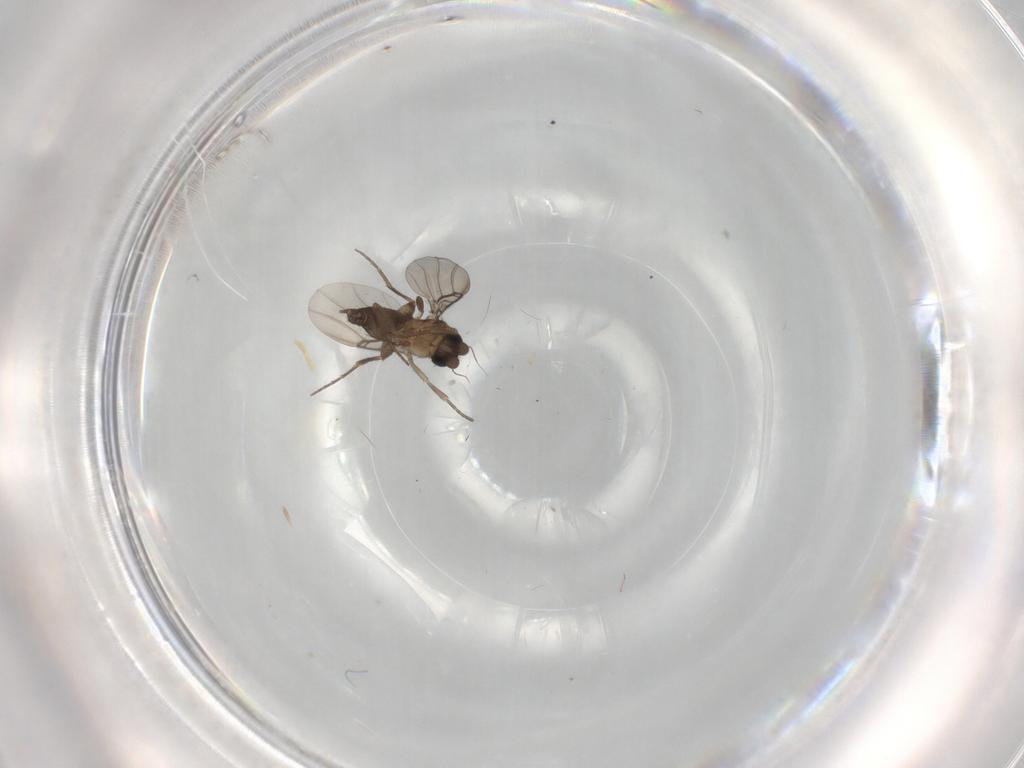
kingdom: Animalia
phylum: Arthropoda
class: Insecta
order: Diptera
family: Phoridae
